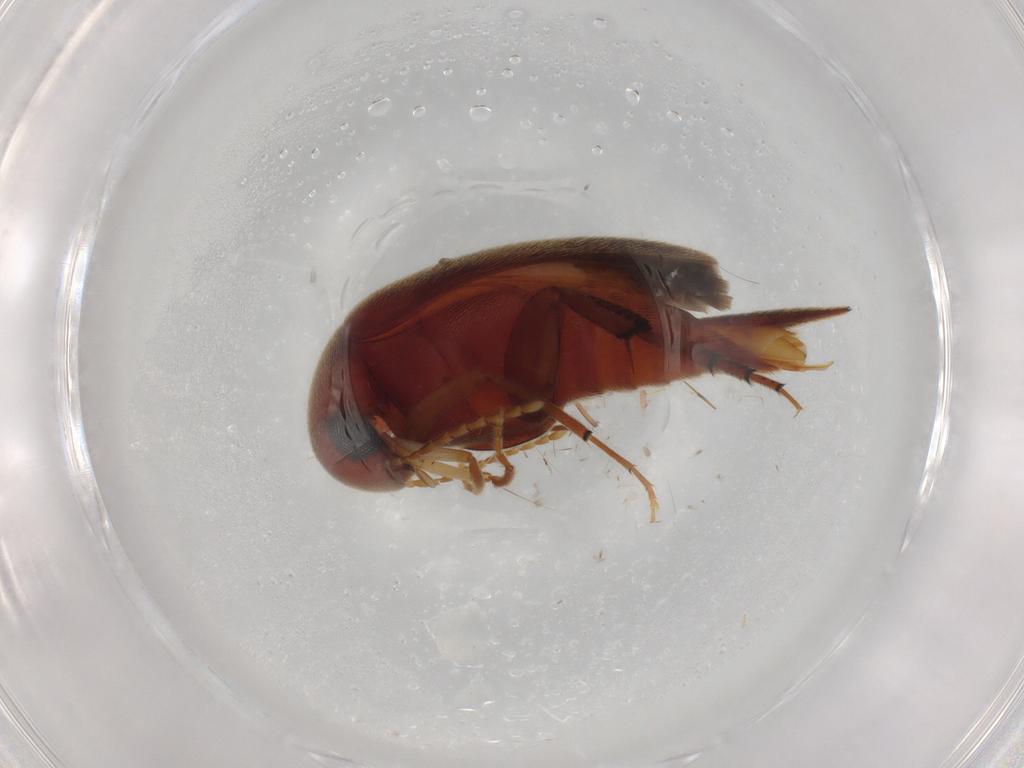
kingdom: Animalia
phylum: Arthropoda
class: Insecta
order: Coleoptera
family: Mordellidae
